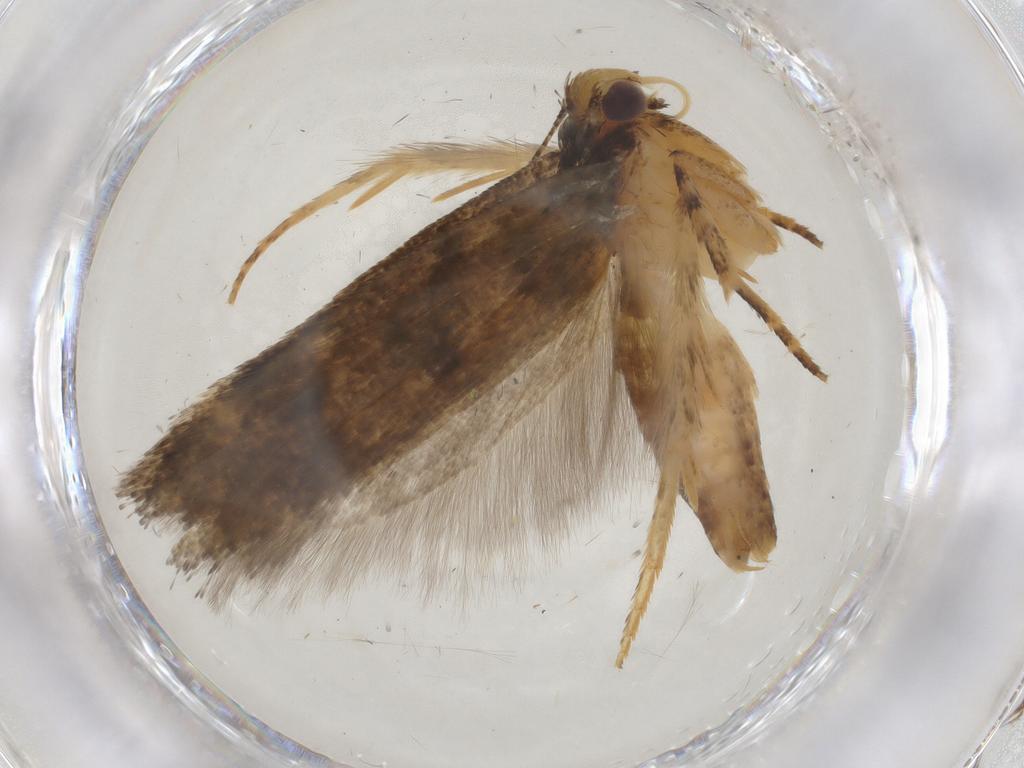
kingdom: Animalia
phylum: Arthropoda
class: Insecta
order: Lepidoptera
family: Gelechiidae
